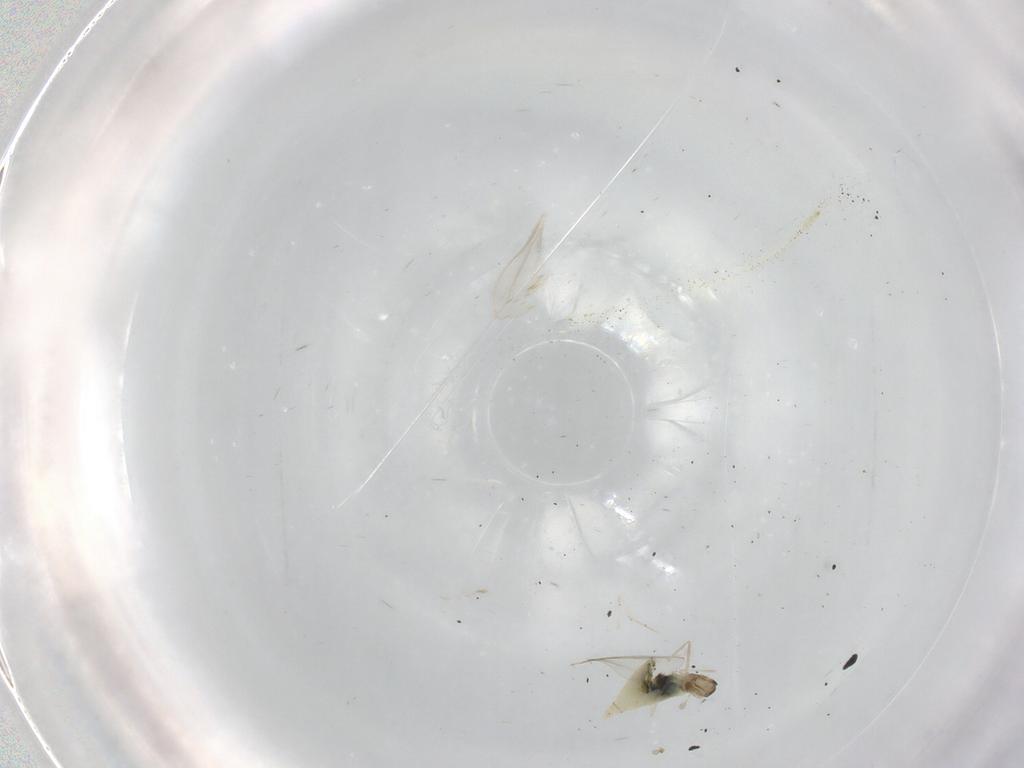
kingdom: Animalia
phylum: Arthropoda
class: Insecta
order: Diptera
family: Cecidomyiidae
